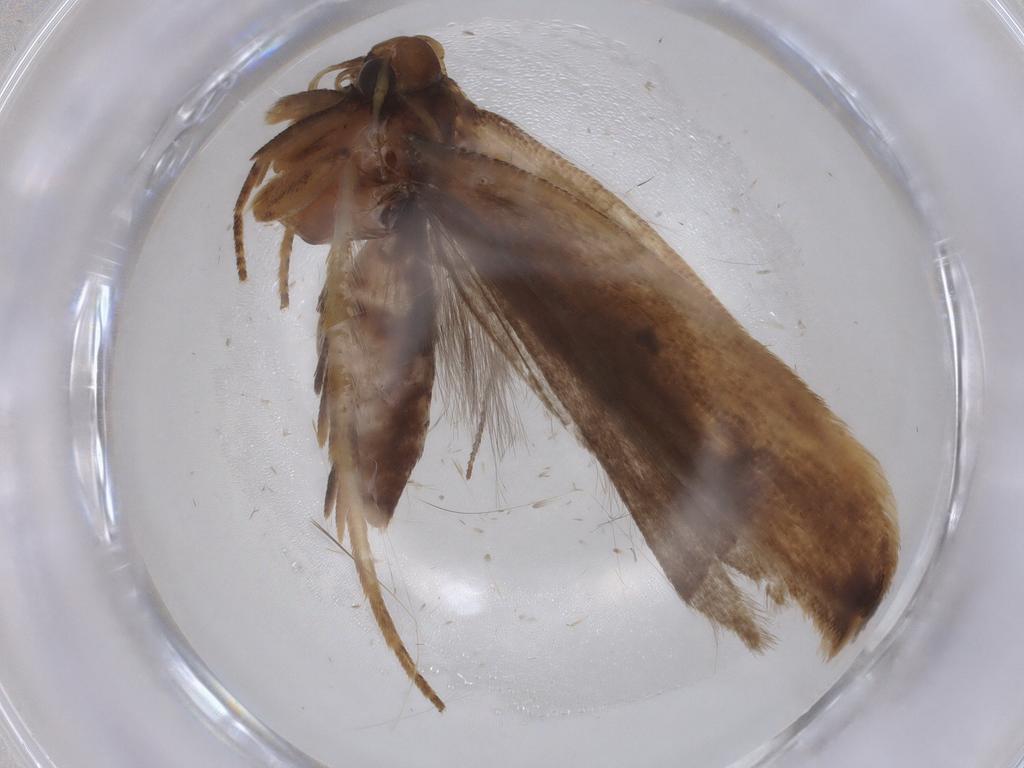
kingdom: Animalia
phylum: Arthropoda
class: Insecta
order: Lepidoptera
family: Gelechiidae
